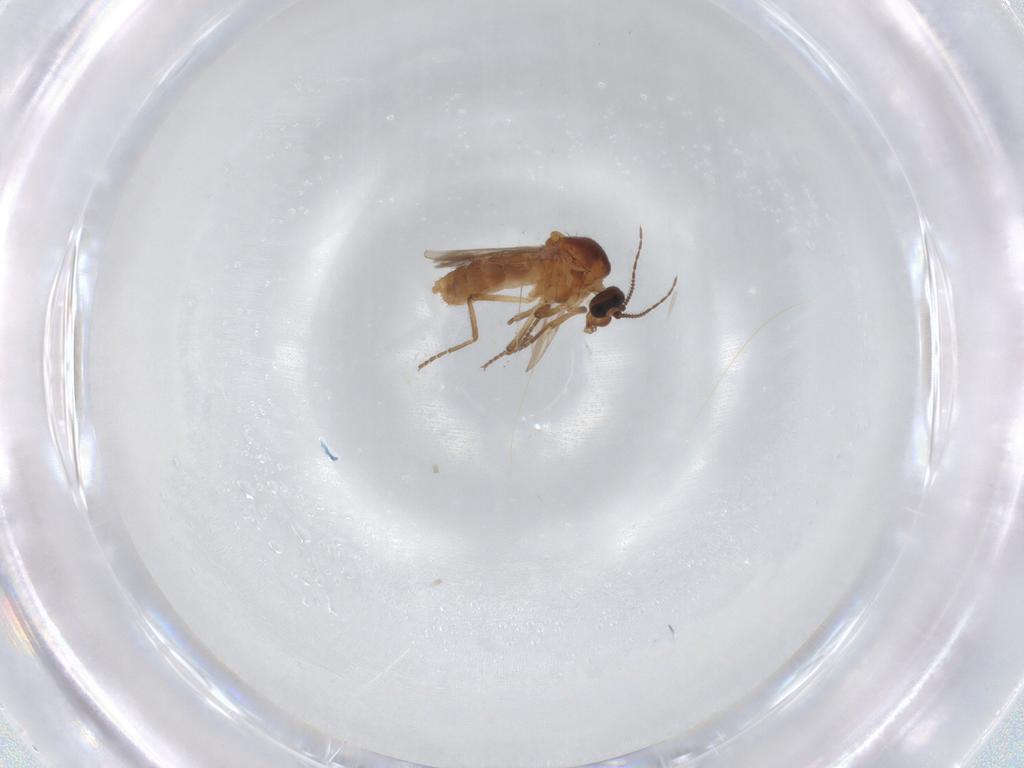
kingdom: Animalia
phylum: Arthropoda
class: Insecta
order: Diptera
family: Ceratopogonidae
